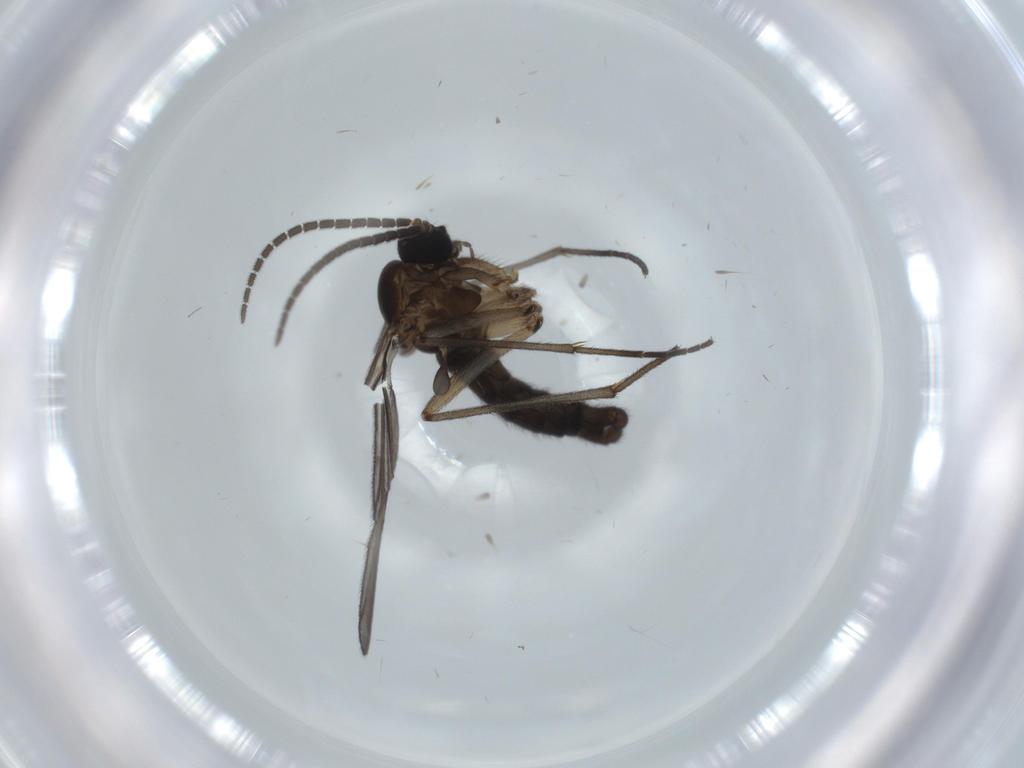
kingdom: Animalia
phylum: Arthropoda
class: Insecta
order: Diptera
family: Sciaridae
